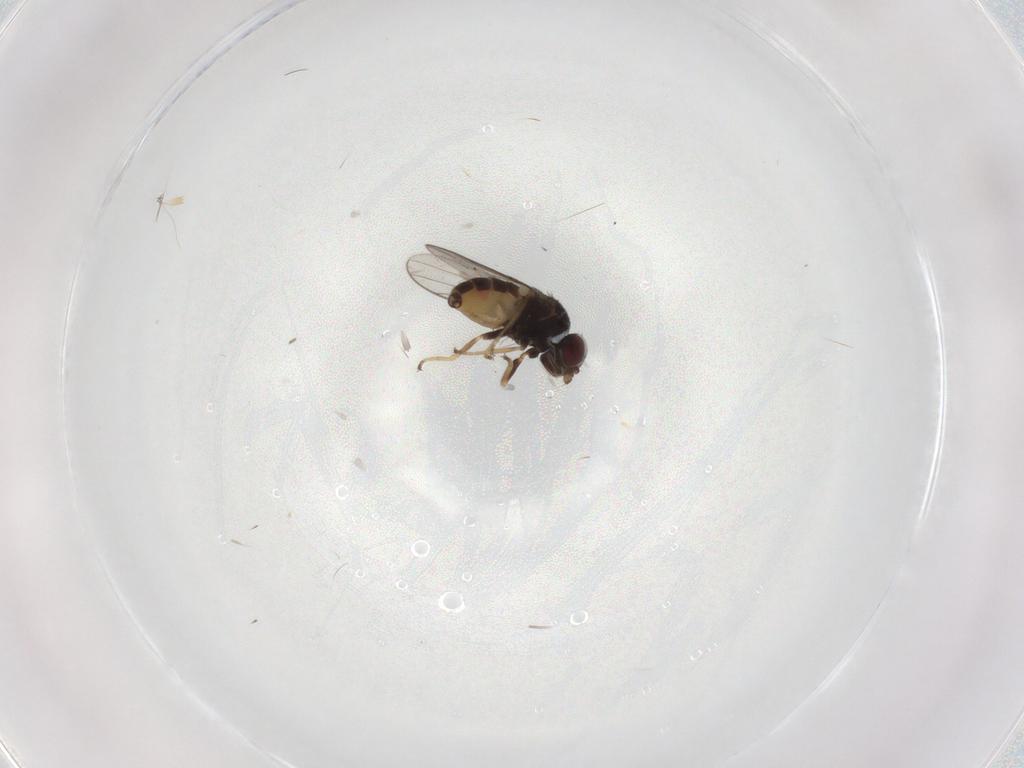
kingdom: Animalia
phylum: Arthropoda
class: Insecta
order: Diptera
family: Chloropidae
